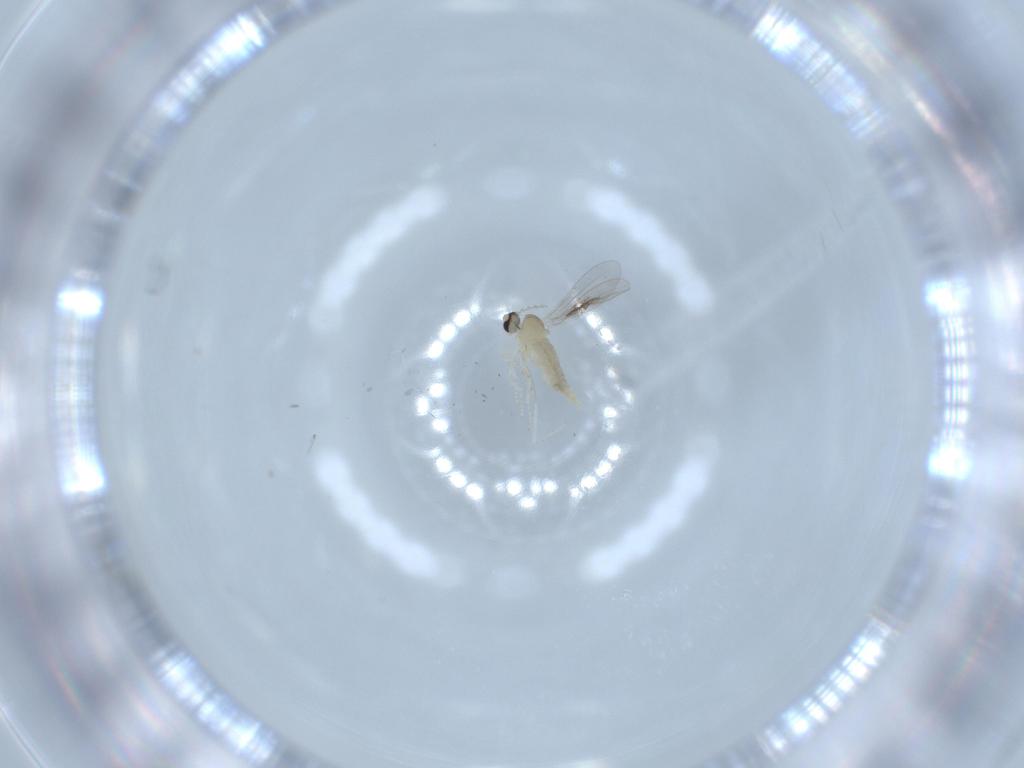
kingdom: Animalia
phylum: Arthropoda
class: Insecta
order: Diptera
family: Cecidomyiidae
